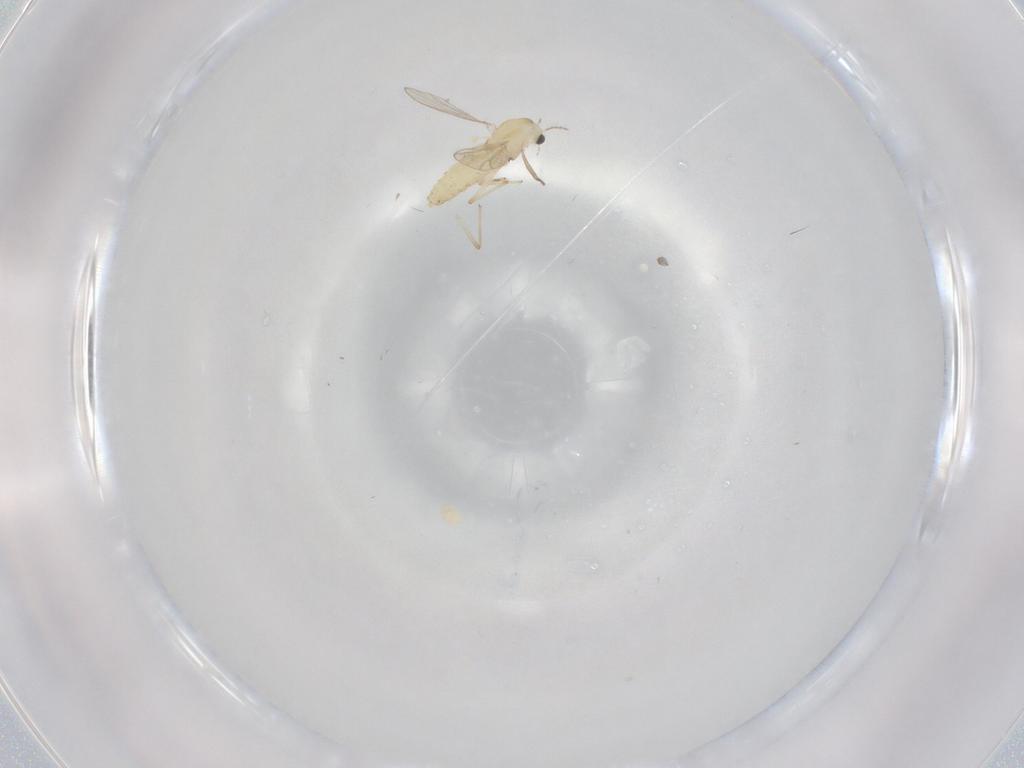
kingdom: Animalia
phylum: Arthropoda
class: Insecta
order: Diptera
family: Chironomidae
